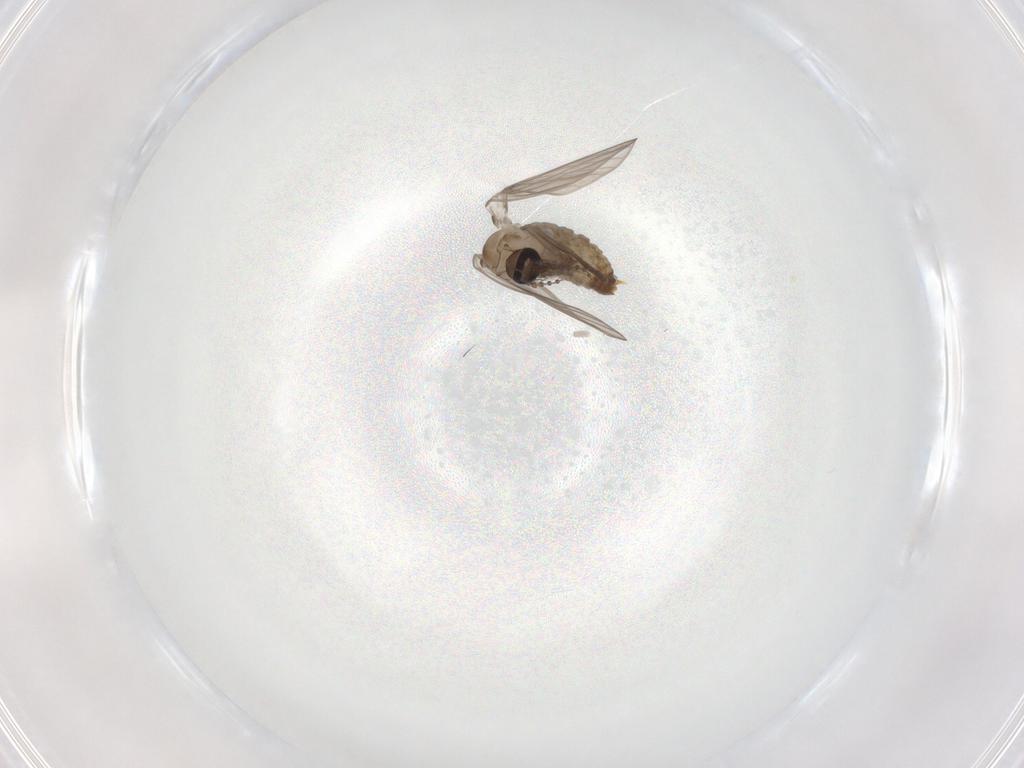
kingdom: Animalia
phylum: Arthropoda
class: Insecta
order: Diptera
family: Psychodidae
